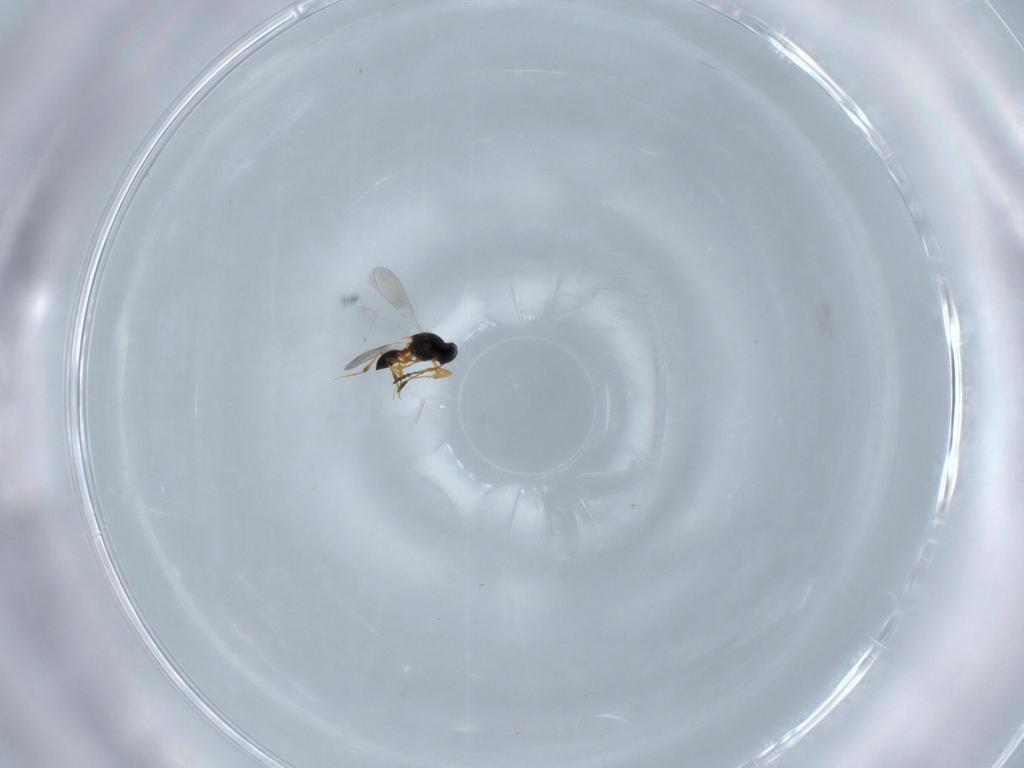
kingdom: Animalia
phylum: Arthropoda
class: Insecta
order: Hymenoptera
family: Platygastridae
